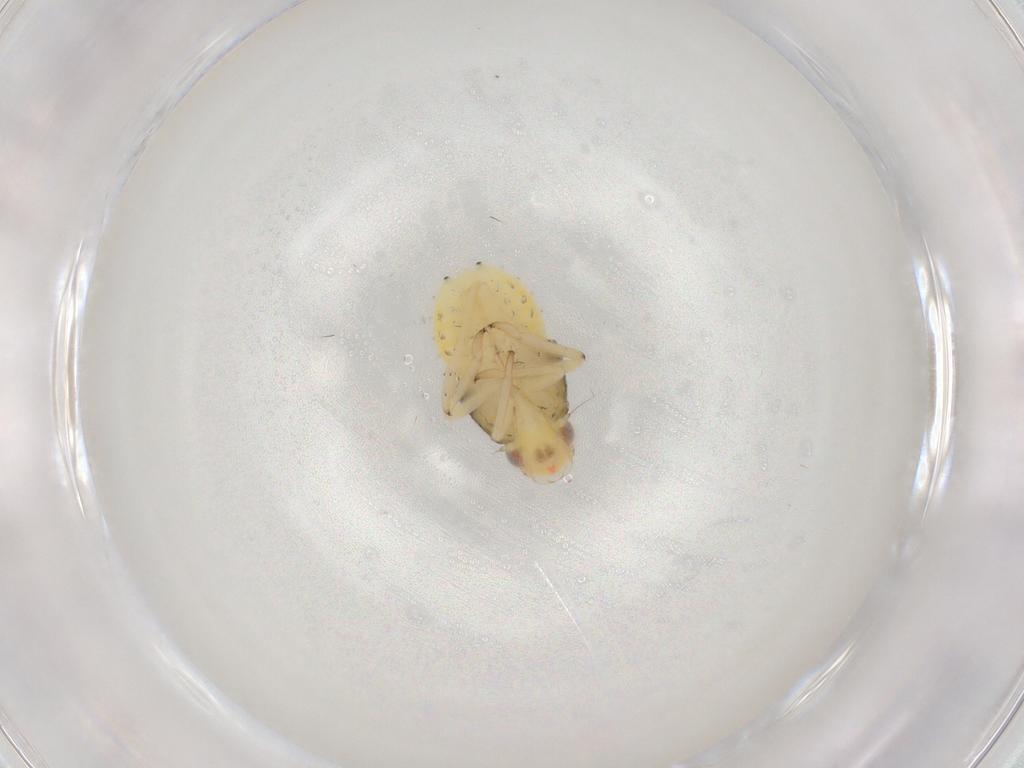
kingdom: Animalia
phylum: Arthropoda
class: Insecta
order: Hemiptera
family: Caliscelidae
